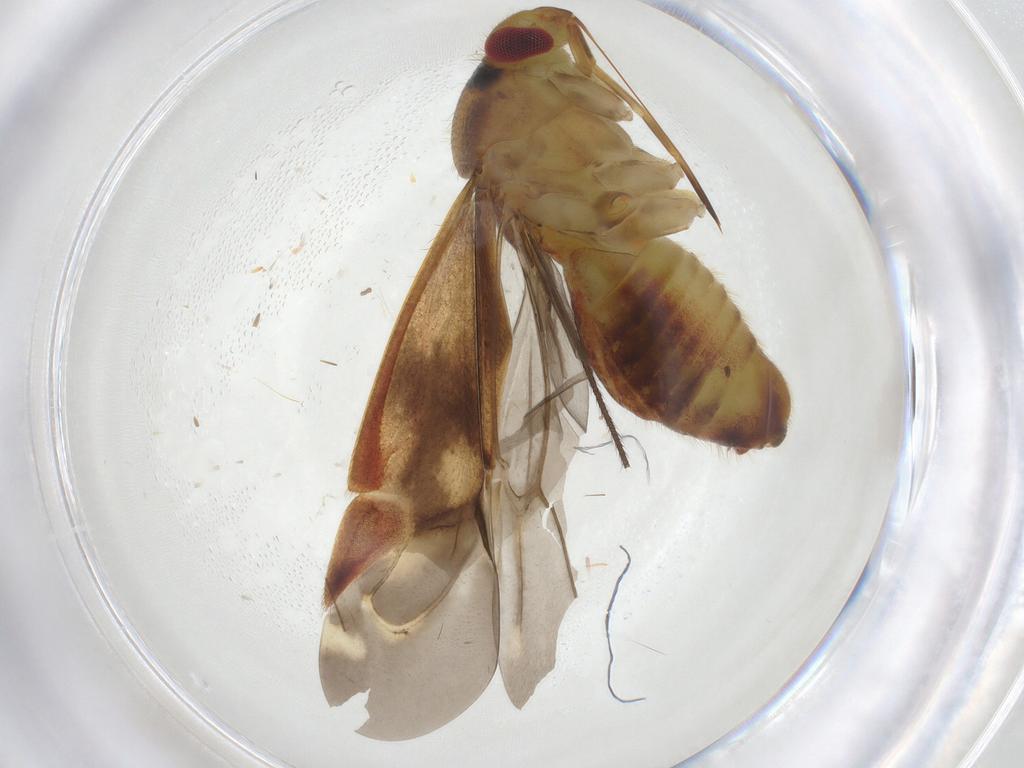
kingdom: Animalia
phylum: Arthropoda
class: Insecta
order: Hemiptera
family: Miridae
